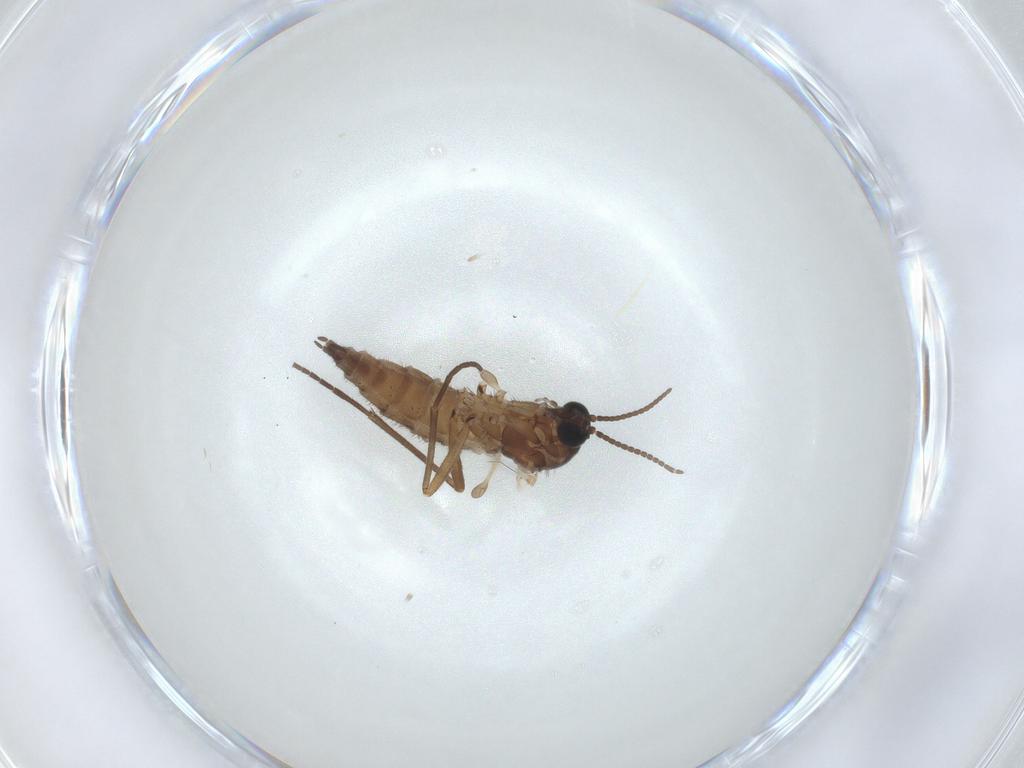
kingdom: Animalia
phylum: Arthropoda
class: Insecta
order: Diptera
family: Sciaridae
